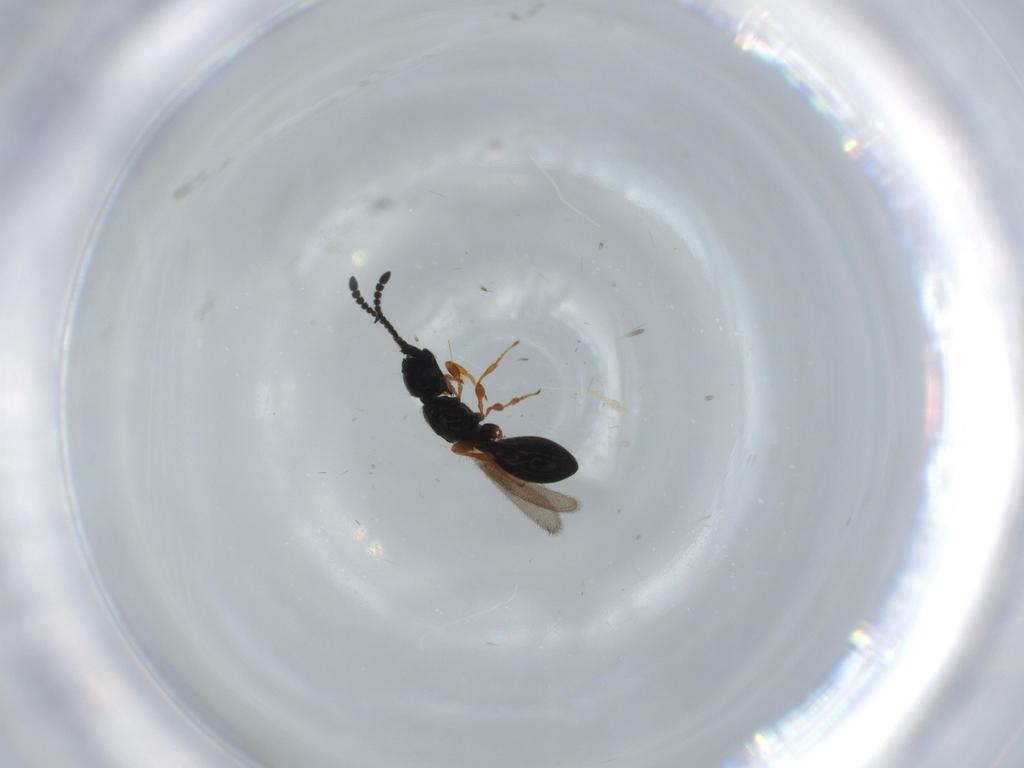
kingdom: Animalia
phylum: Arthropoda
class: Insecta
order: Hymenoptera
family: Diapriidae
